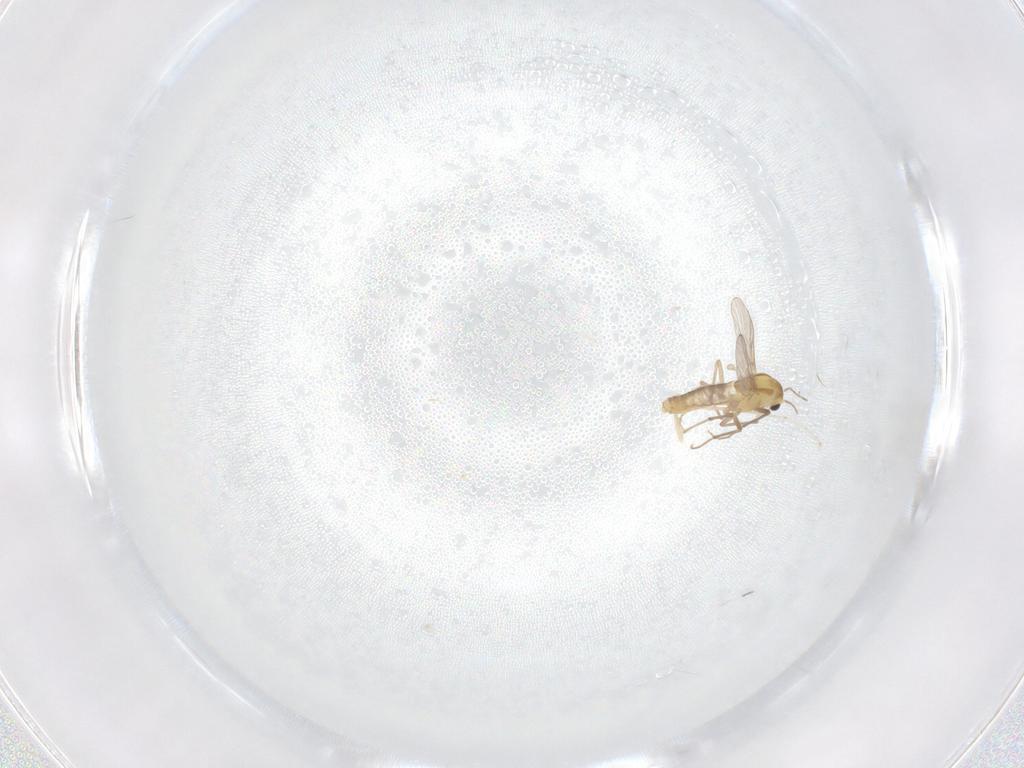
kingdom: Animalia
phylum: Arthropoda
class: Insecta
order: Diptera
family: Chironomidae
